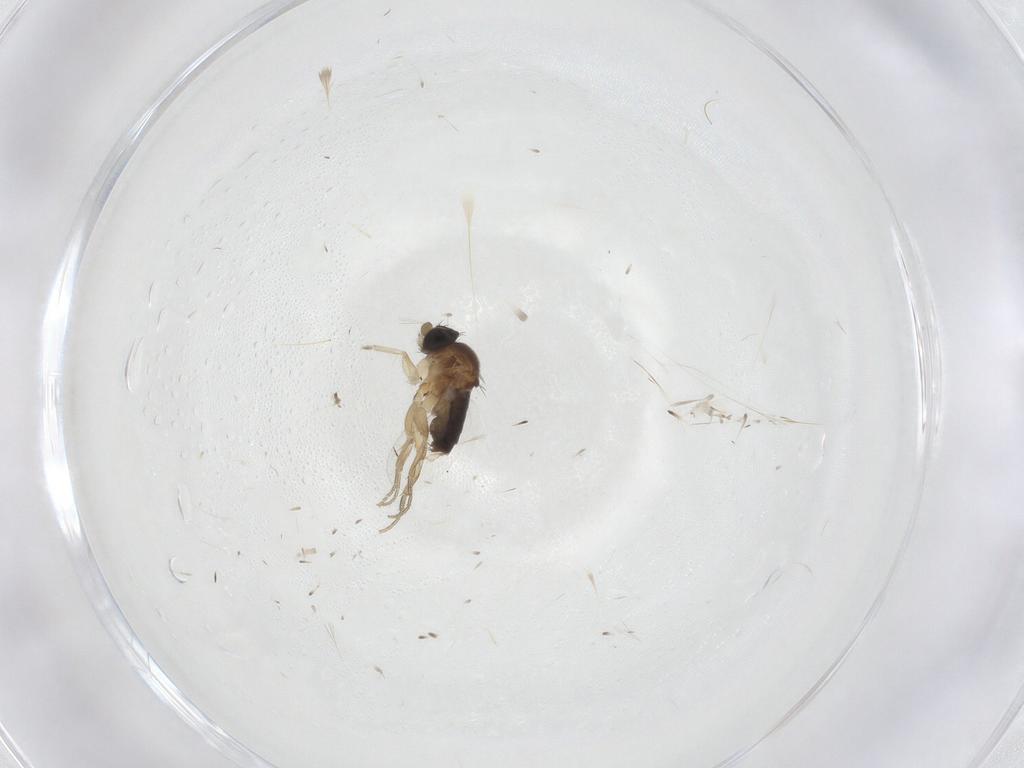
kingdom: Animalia
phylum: Arthropoda
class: Insecta
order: Diptera
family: Cecidomyiidae
